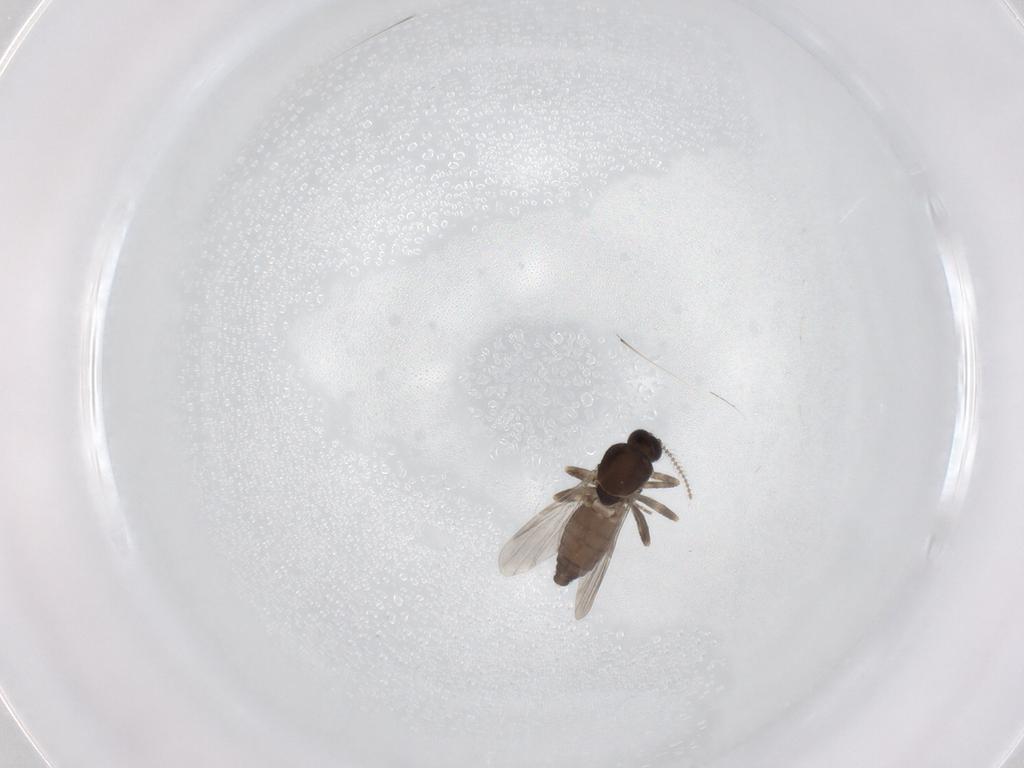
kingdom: Animalia
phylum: Arthropoda
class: Insecta
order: Diptera
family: Ceratopogonidae
